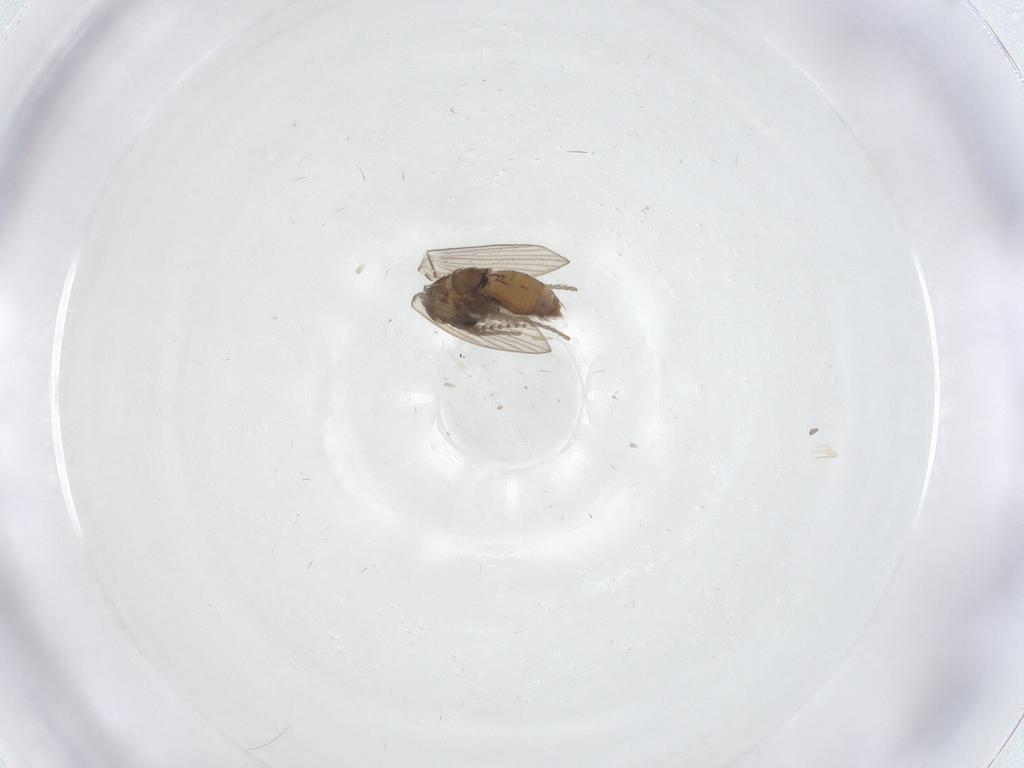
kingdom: Animalia
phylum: Arthropoda
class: Insecta
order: Diptera
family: Psychodidae
